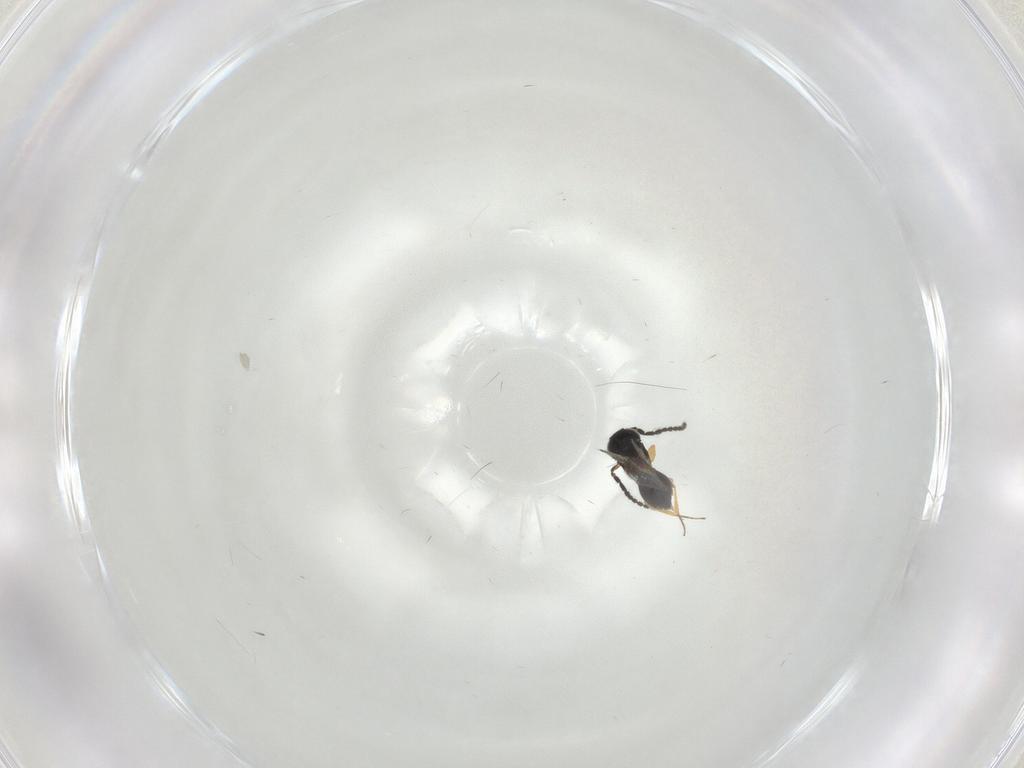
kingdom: Animalia
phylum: Arthropoda
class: Insecta
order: Hymenoptera
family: Scelionidae
